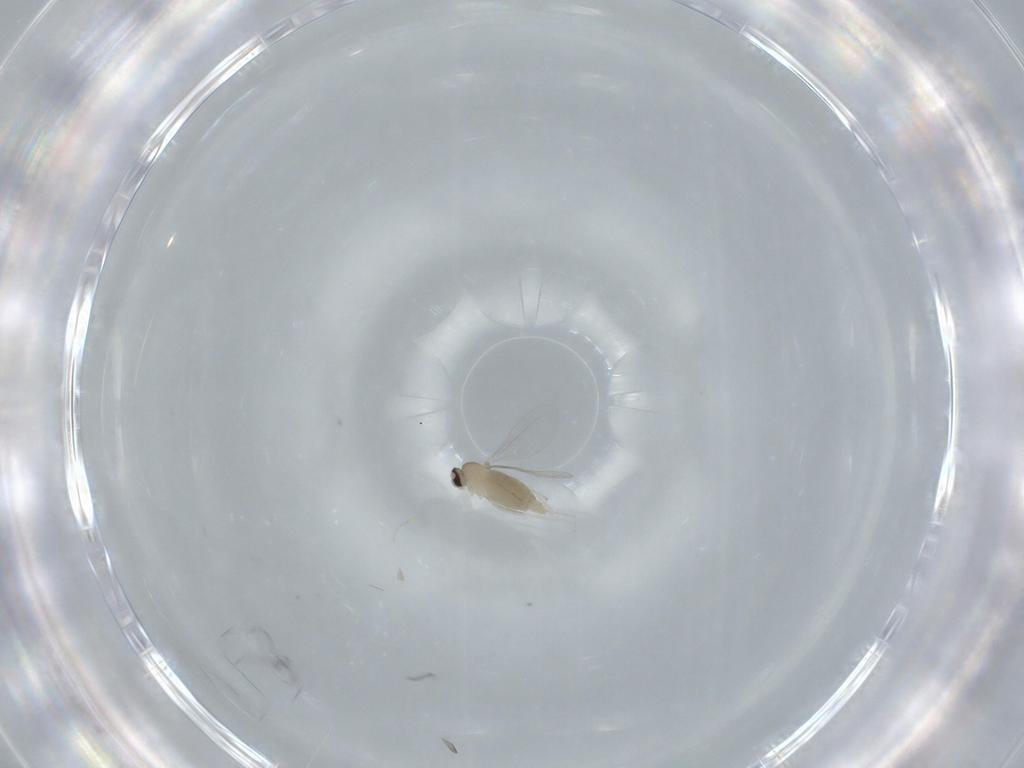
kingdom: Animalia
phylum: Arthropoda
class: Insecta
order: Diptera
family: Cecidomyiidae
